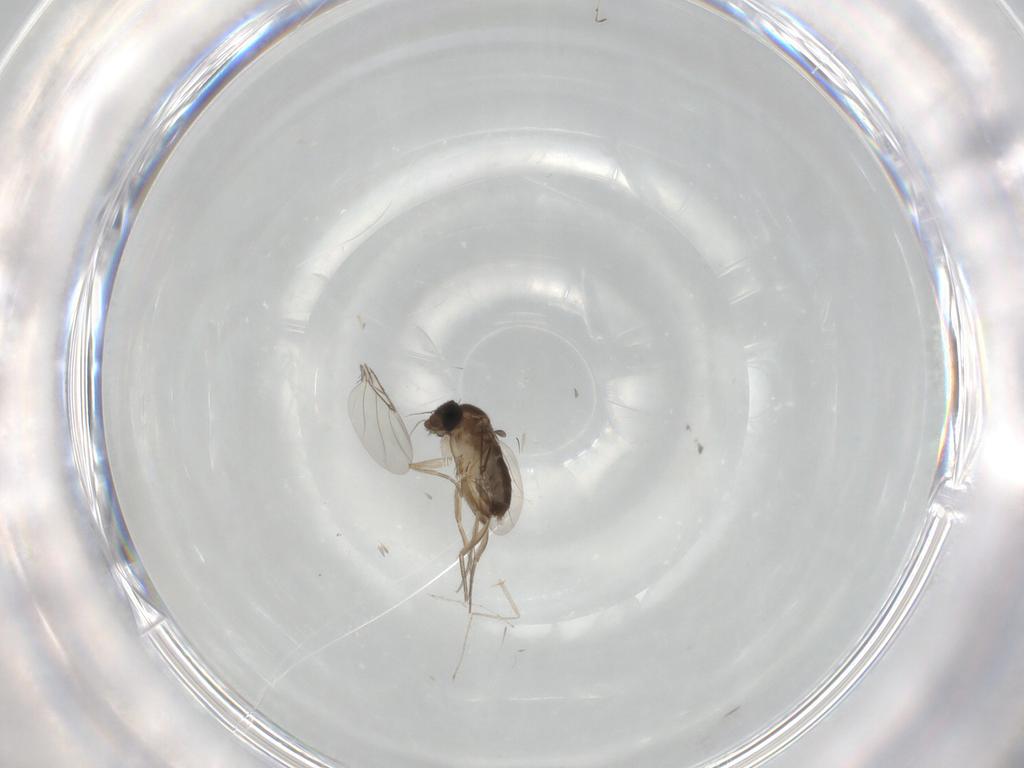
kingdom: Animalia
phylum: Arthropoda
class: Insecta
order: Diptera
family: Phoridae
